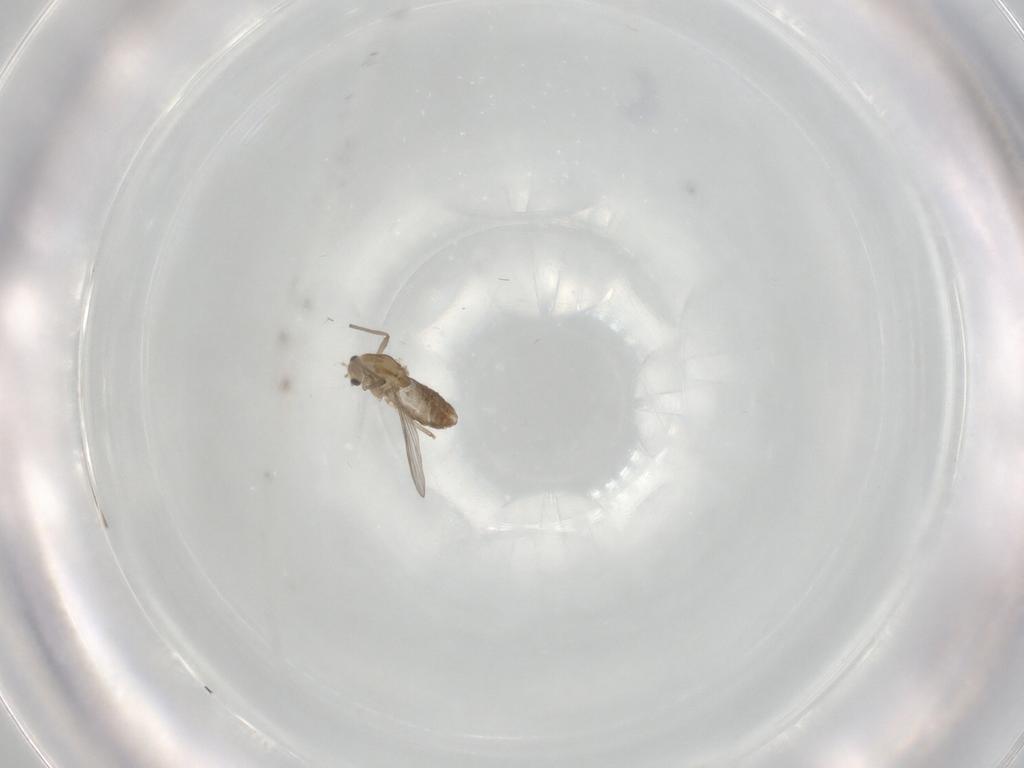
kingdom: Animalia
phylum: Arthropoda
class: Insecta
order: Diptera
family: Chironomidae
